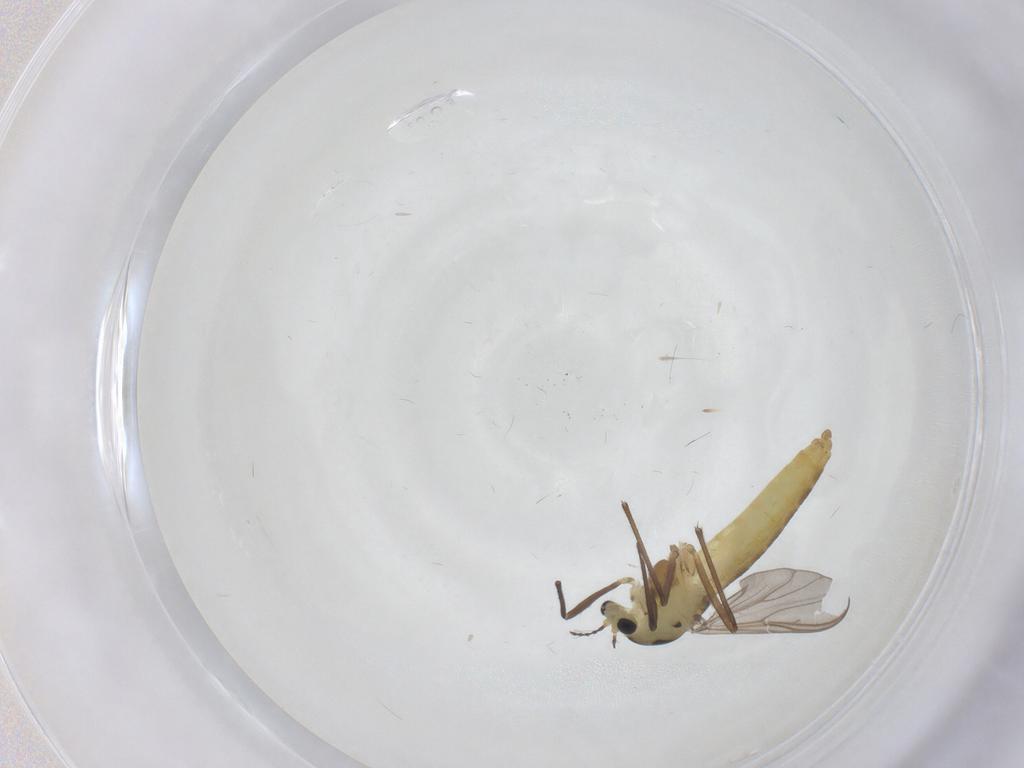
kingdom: Animalia
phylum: Arthropoda
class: Insecta
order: Diptera
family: Chironomidae
